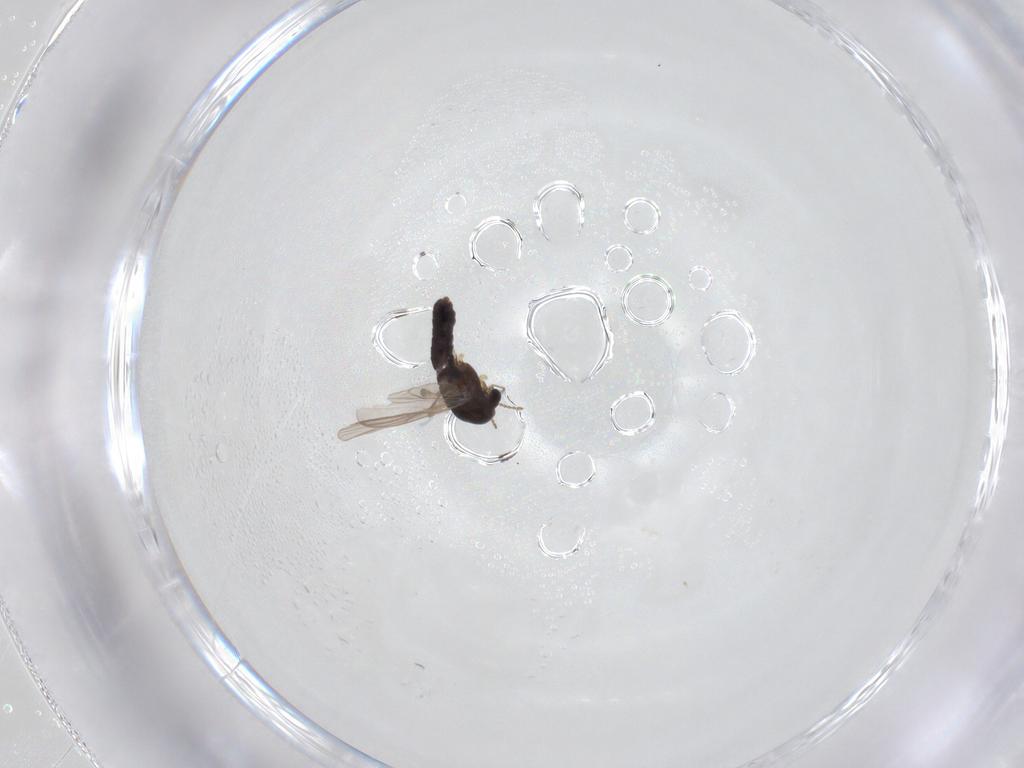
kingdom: Animalia
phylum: Arthropoda
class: Insecta
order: Diptera
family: Chironomidae
